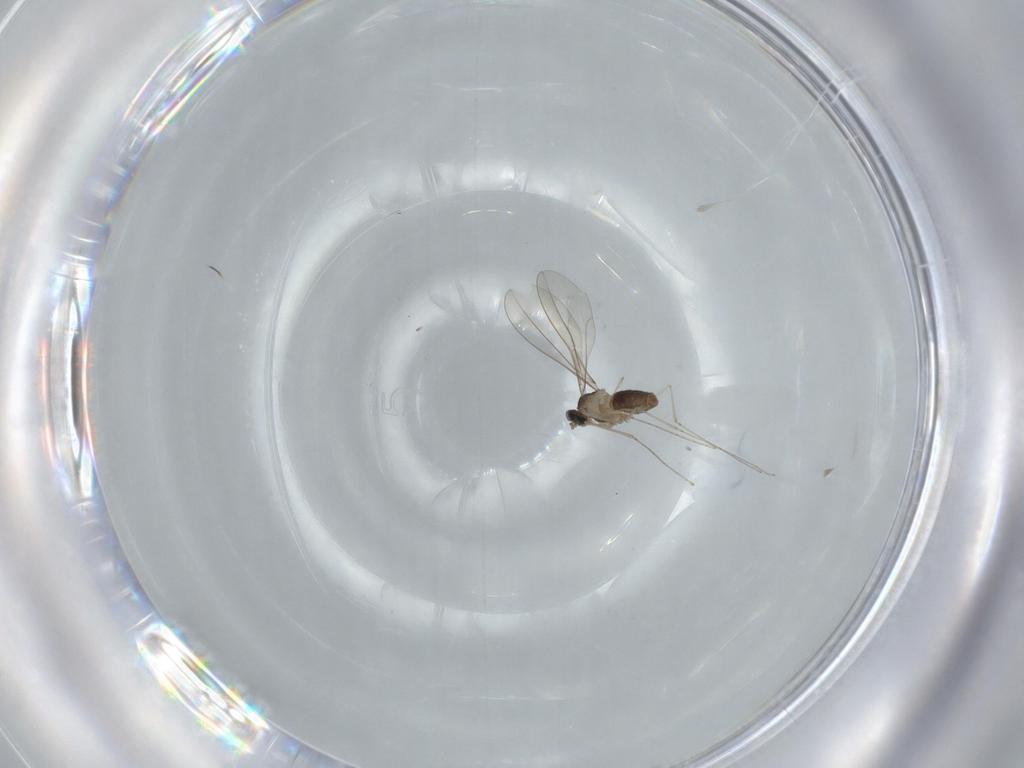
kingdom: Animalia
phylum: Arthropoda
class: Insecta
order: Diptera
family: Cecidomyiidae
